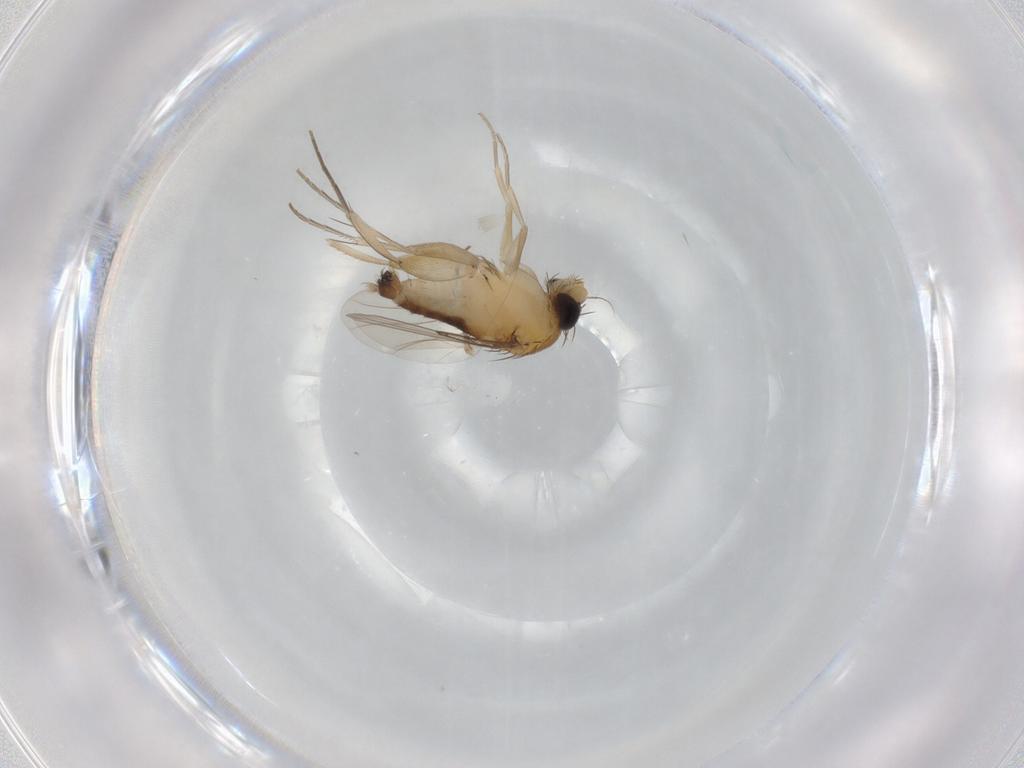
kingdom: Animalia
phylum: Arthropoda
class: Insecta
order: Diptera
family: Phoridae
